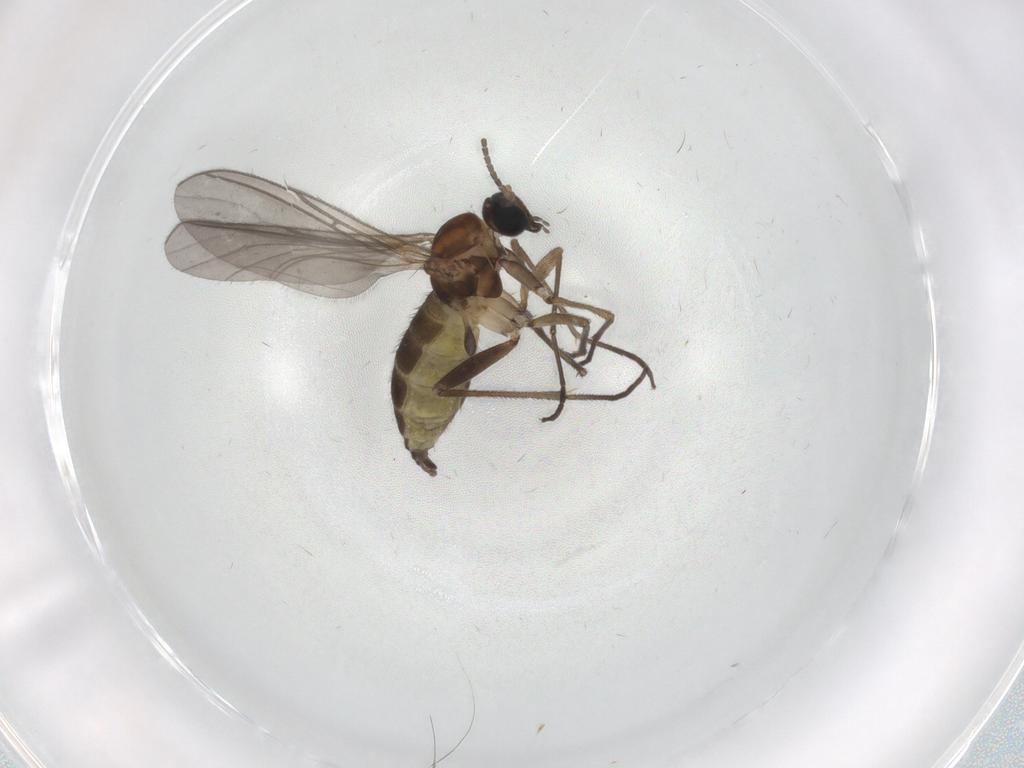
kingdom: Animalia
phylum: Arthropoda
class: Insecta
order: Diptera
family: Sciaridae
